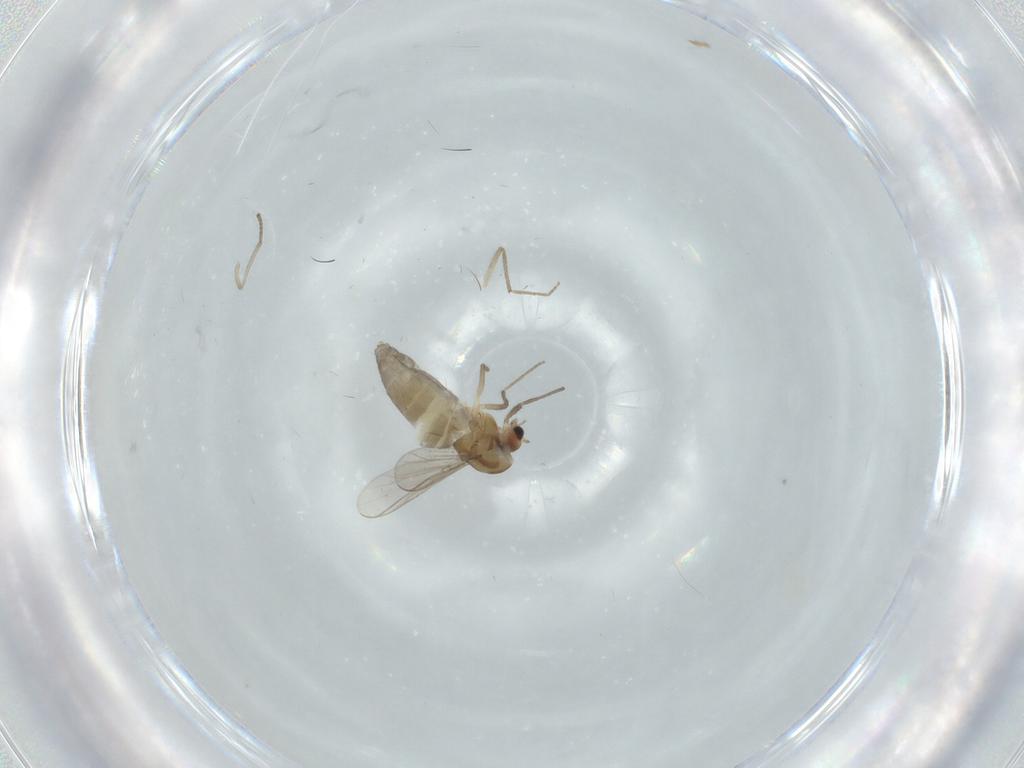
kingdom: Animalia
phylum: Arthropoda
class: Insecta
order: Diptera
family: Chironomidae
